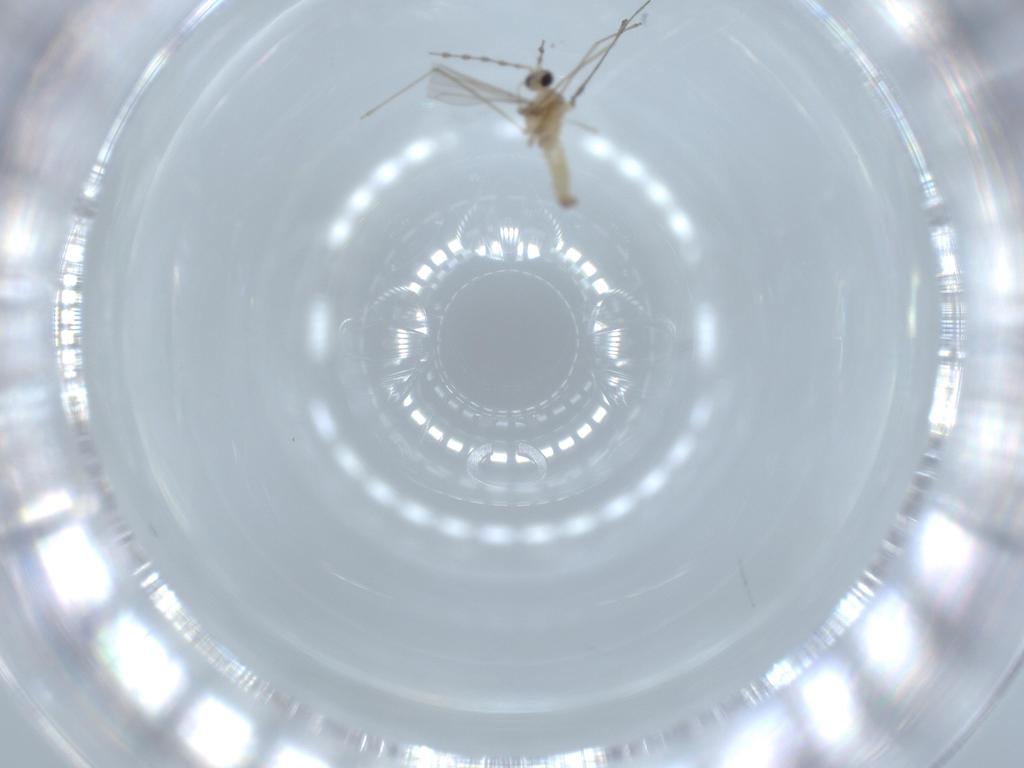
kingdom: Animalia
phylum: Arthropoda
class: Insecta
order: Diptera
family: Cecidomyiidae
